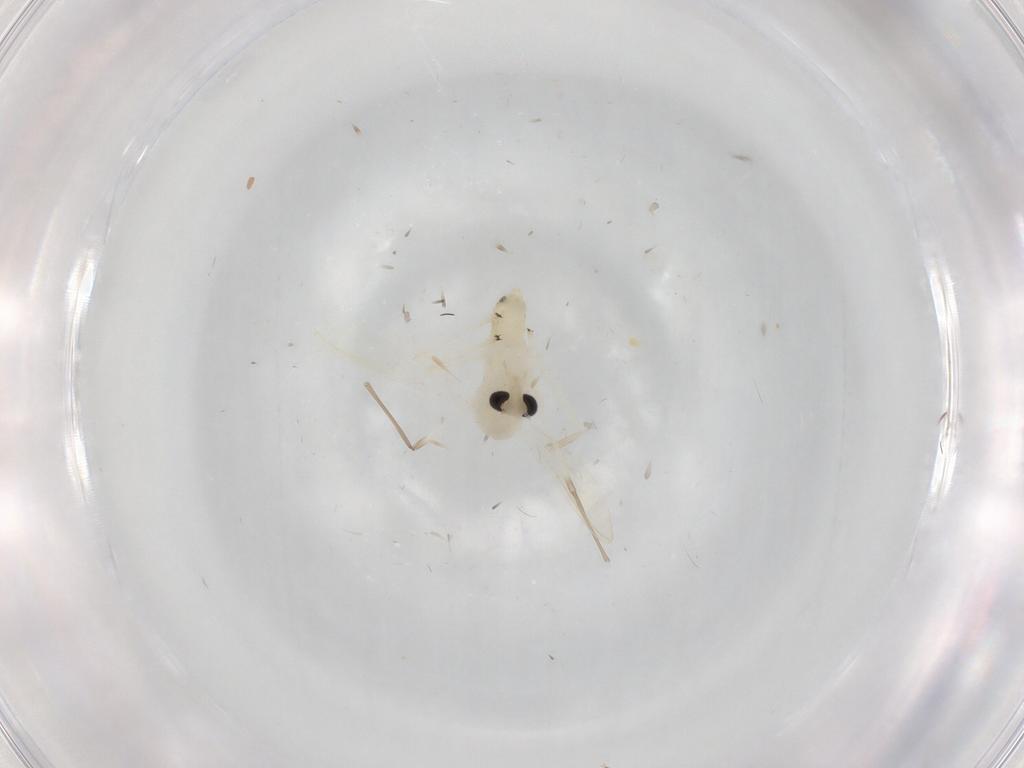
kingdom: Animalia
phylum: Arthropoda
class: Insecta
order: Diptera
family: Chironomidae
